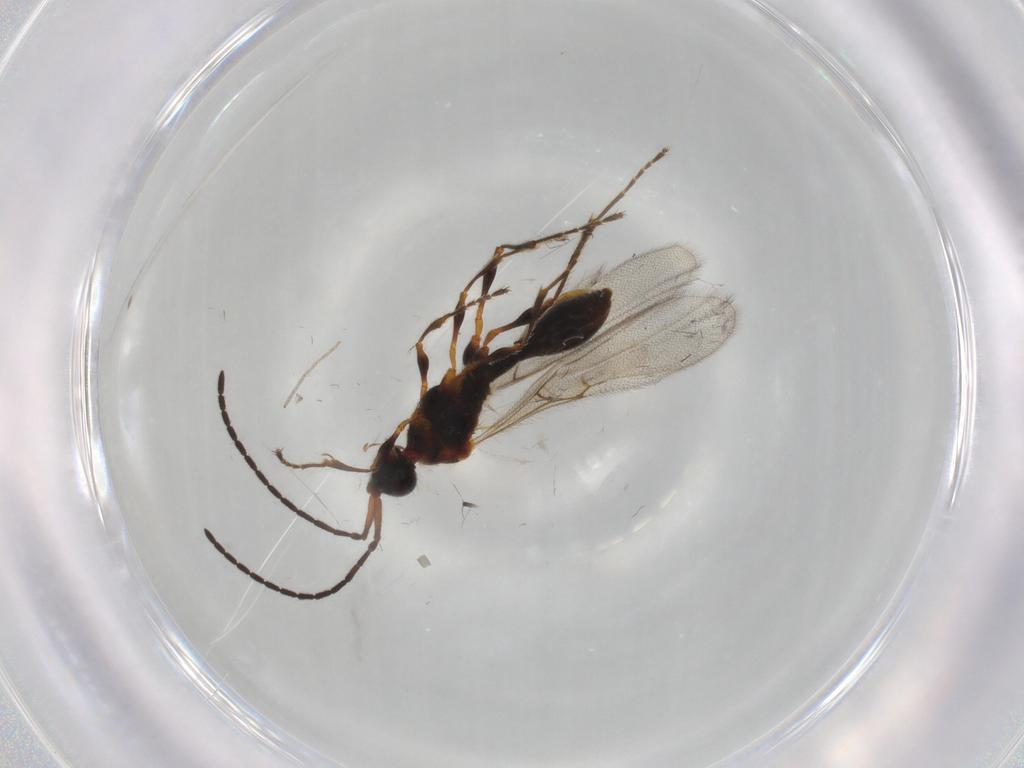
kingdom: Animalia
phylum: Arthropoda
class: Insecta
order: Hymenoptera
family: Diapriidae
